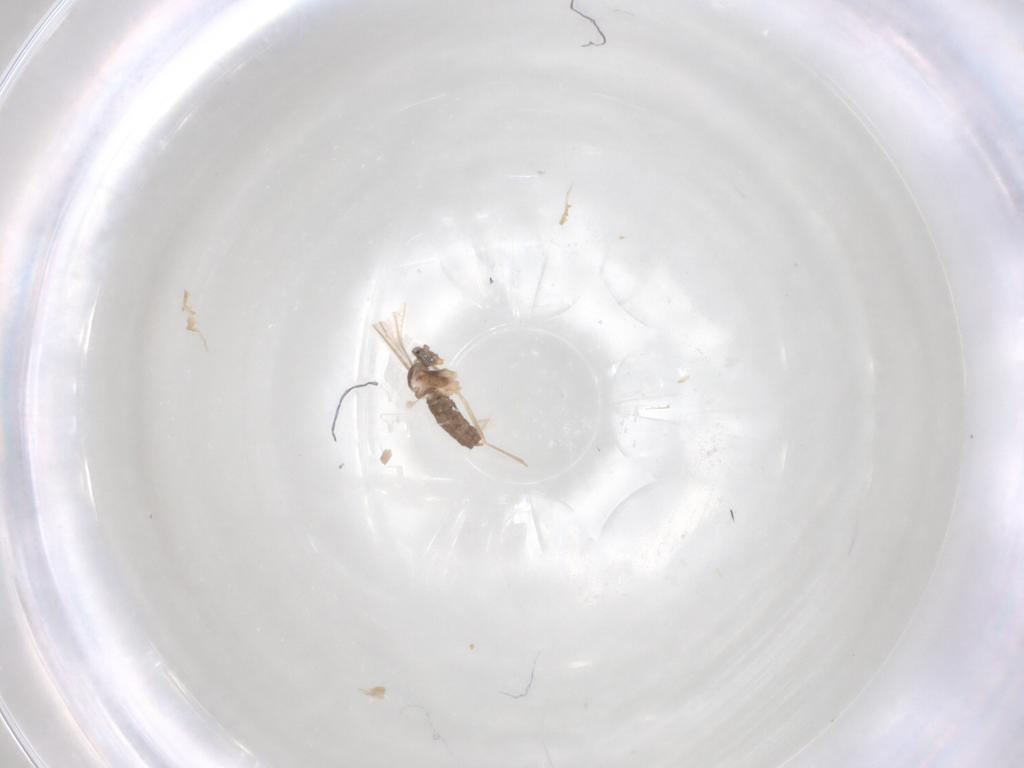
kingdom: Animalia
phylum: Arthropoda
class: Insecta
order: Diptera
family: Cecidomyiidae
